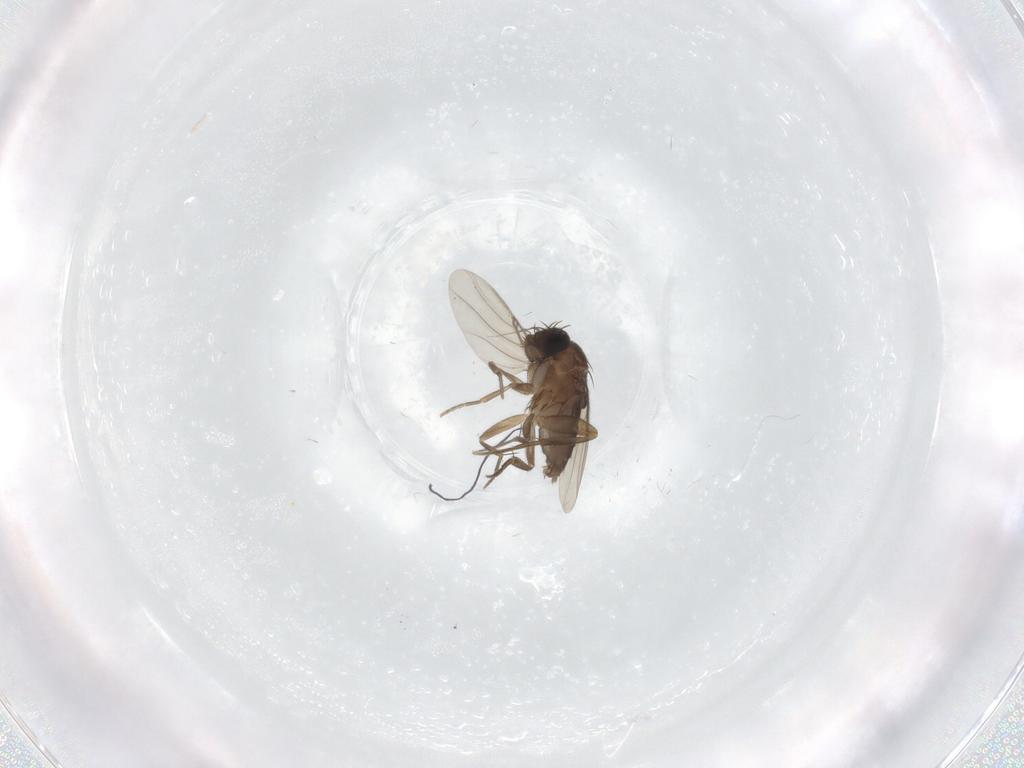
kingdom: Animalia
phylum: Arthropoda
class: Insecta
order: Diptera
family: Phoridae
